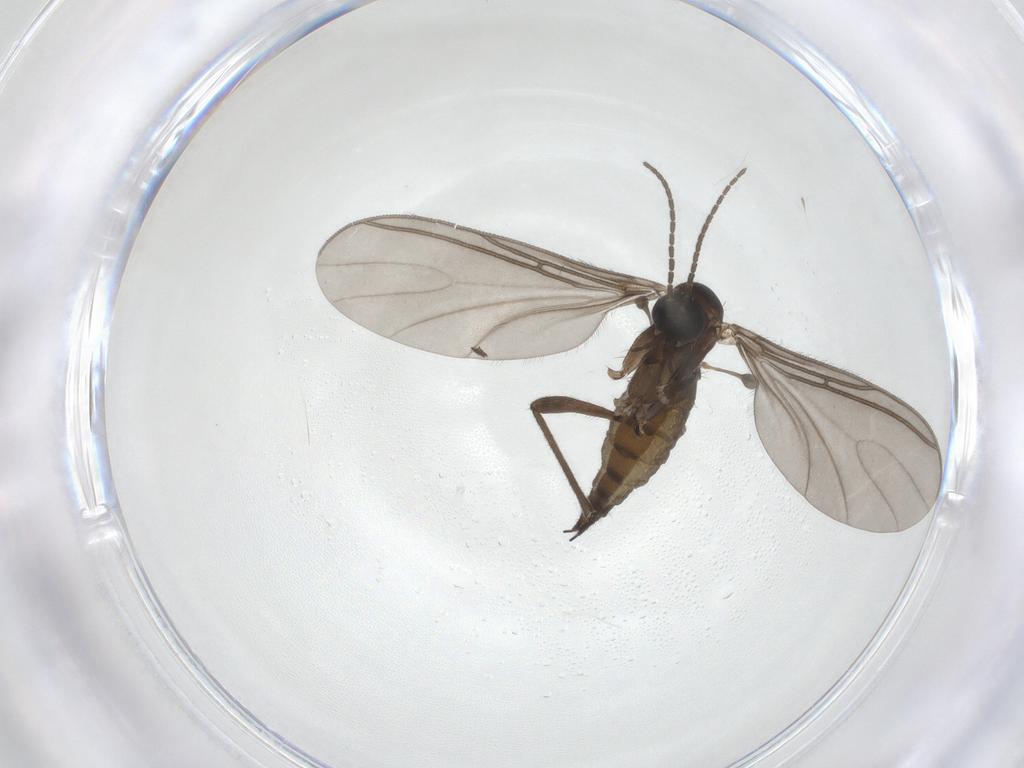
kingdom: Animalia
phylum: Arthropoda
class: Insecta
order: Diptera
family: Sciaridae
